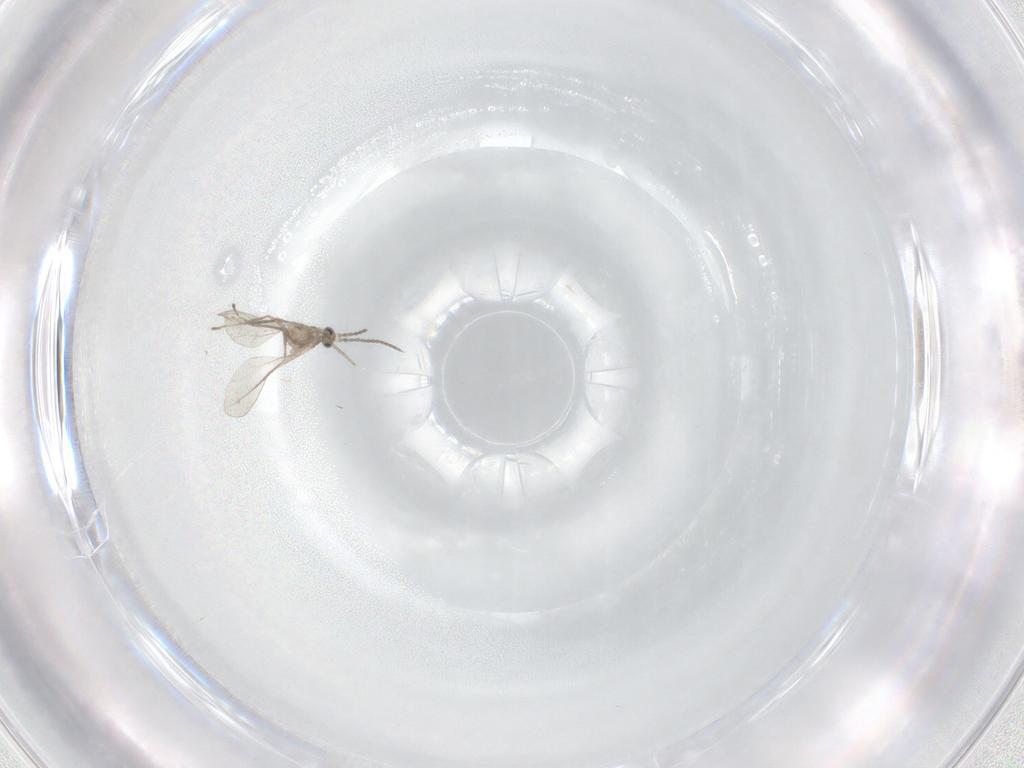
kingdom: Animalia
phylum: Arthropoda
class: Insecta
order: Diptera
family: Cecidomyiidae
